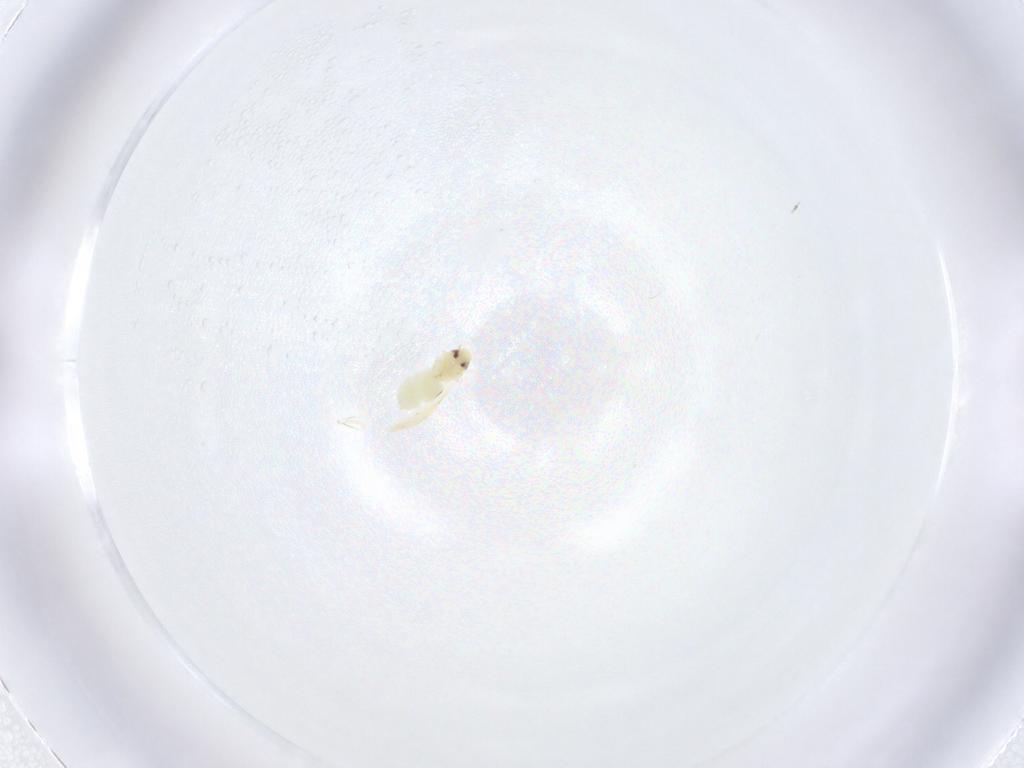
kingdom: Animalia
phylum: Arthropoda
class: Insecta
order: Hemiptera
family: Aleyrodidae
